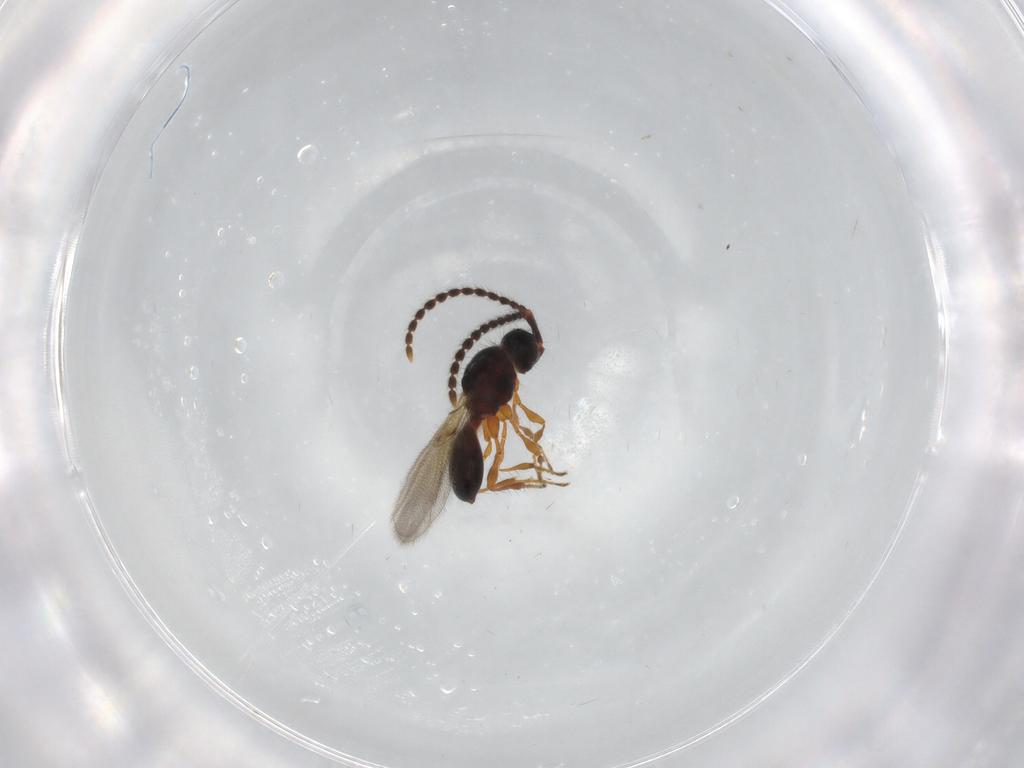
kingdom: Animalia
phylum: Arthropoda
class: Insecta
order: Hymenoptera
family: Diapriidae
